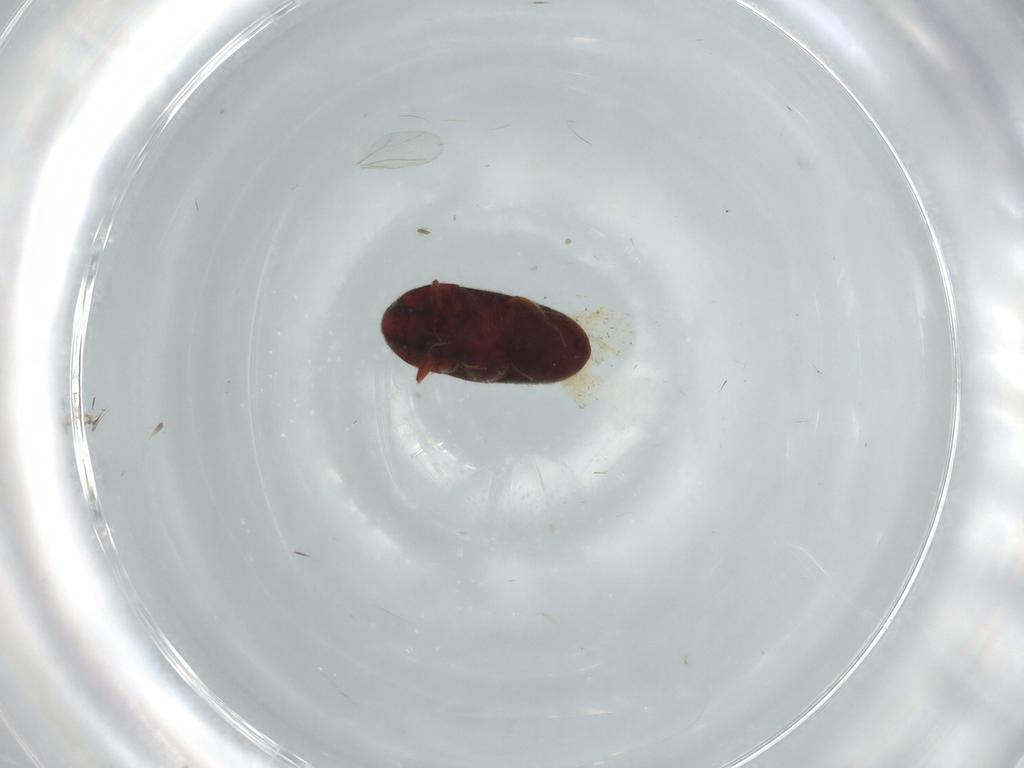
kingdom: Animalia
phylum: Arthropoda
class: Insecta
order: Coleoptera
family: Throscidae
